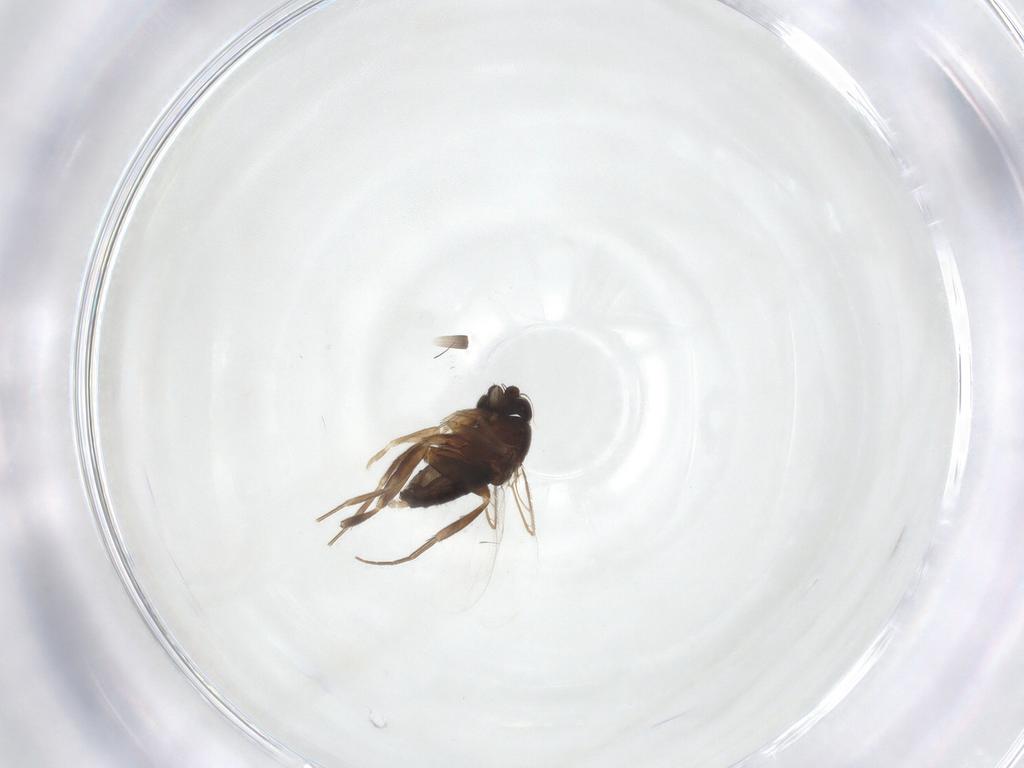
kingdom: Animalia
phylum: Arthropoda
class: Insecta
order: Diptera
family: Phoridae
